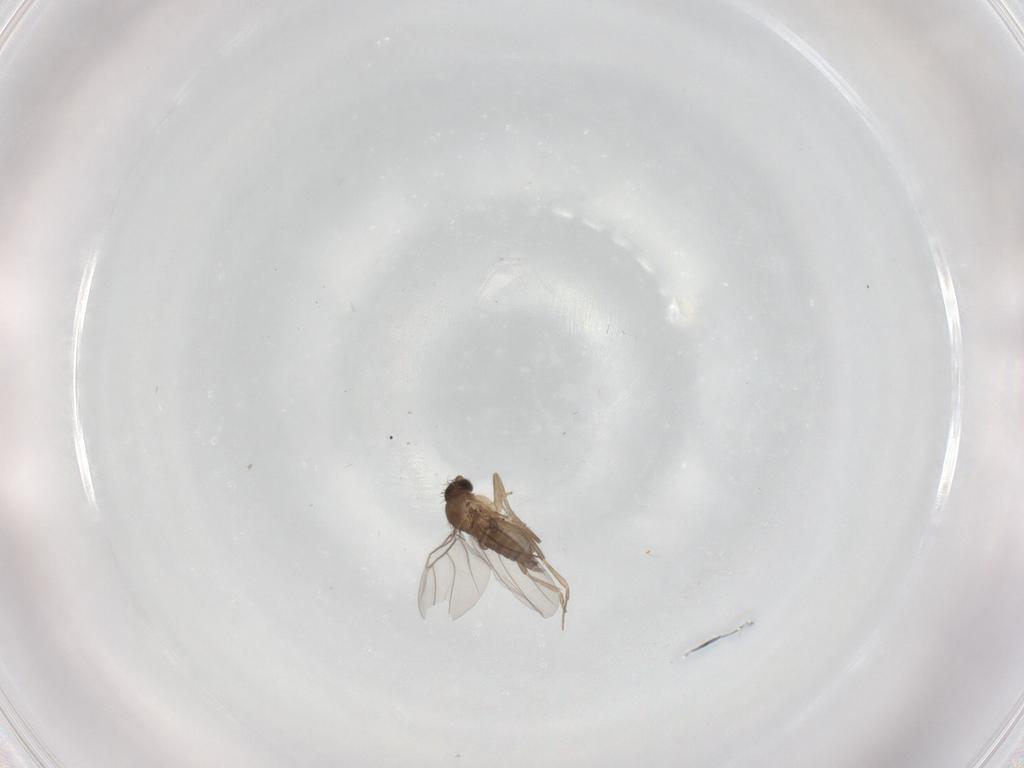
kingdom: Animalia
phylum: Arthropoda
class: Insecta
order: Diptera
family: Phoridae
